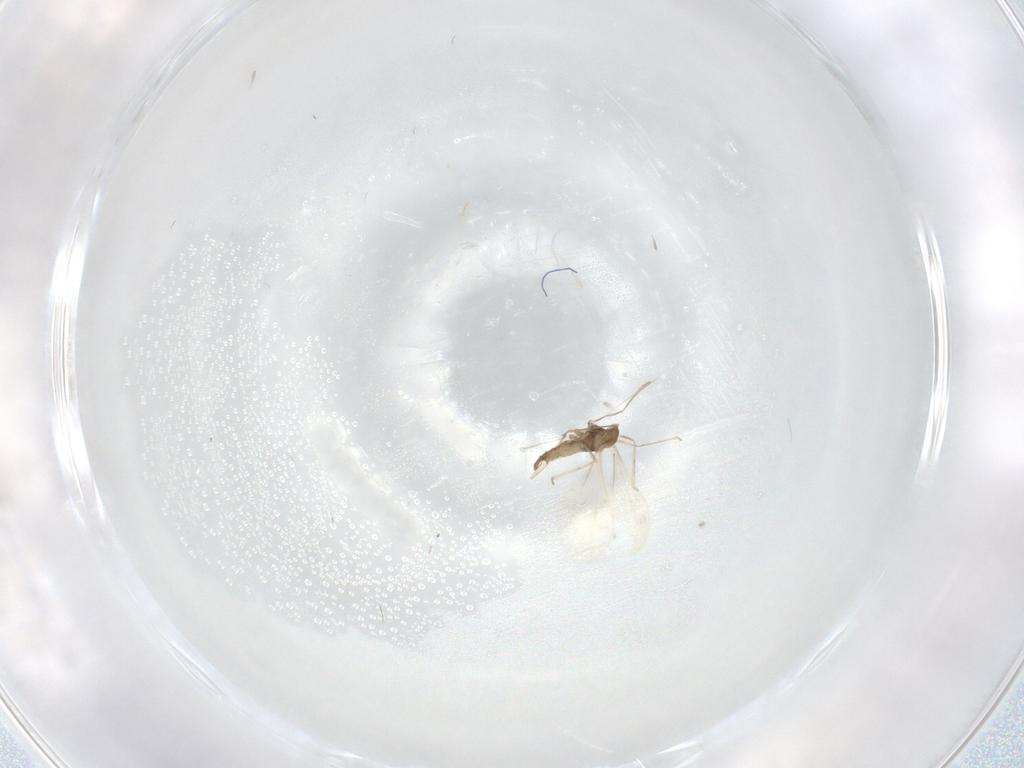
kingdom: Animalia
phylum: Arthropoda
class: Insecta
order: Diptera
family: Cecidomyiidae
